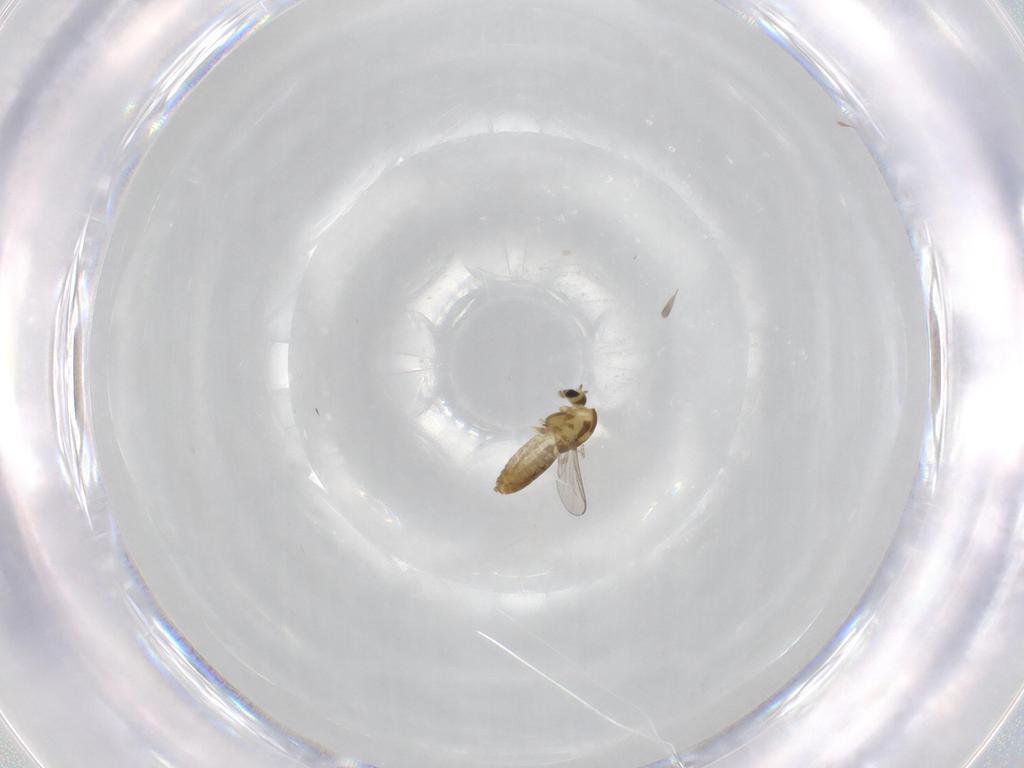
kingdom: Animalia
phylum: Arthropoda
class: Insecta
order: Diptera
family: Chironomidae
